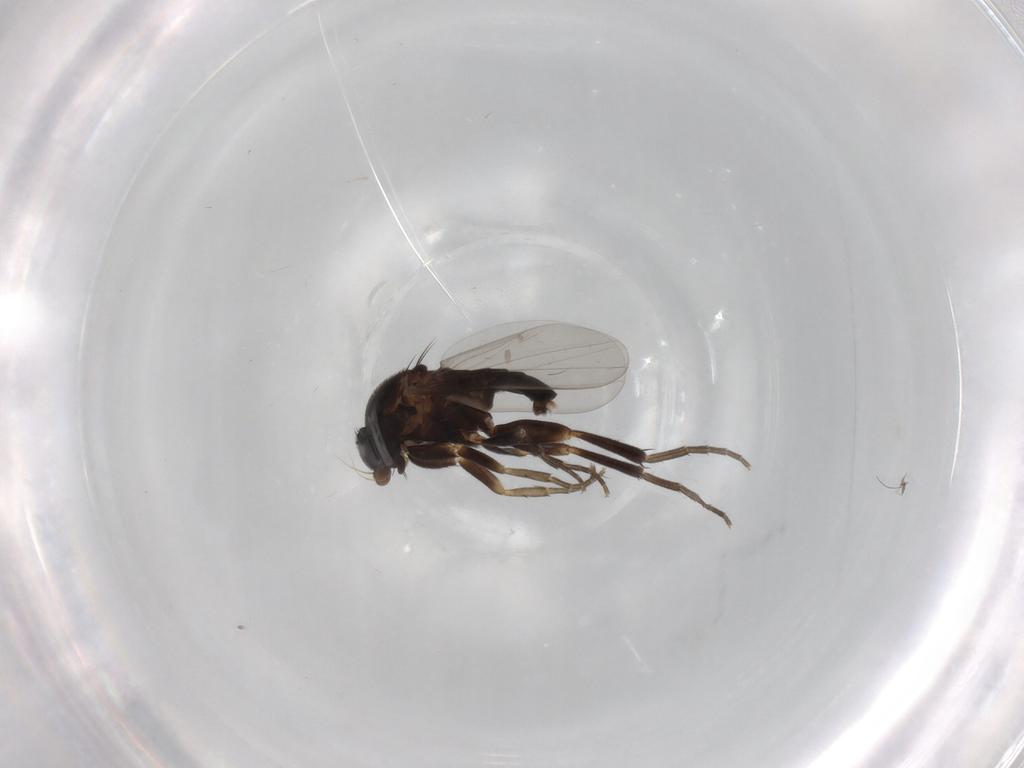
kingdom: Animalia
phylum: Arthropoda
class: Insecta
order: Diptera
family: Phoridae
